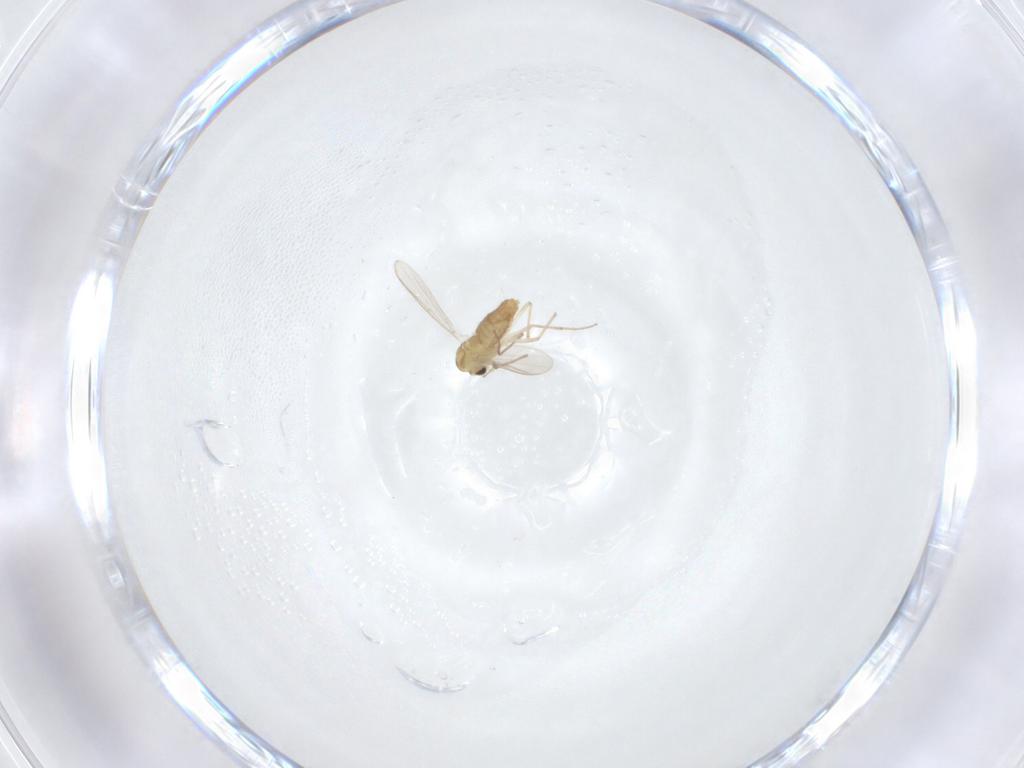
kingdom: Animalia
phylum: Arthropoda
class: Insecta
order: Diptera
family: Chironomidae
